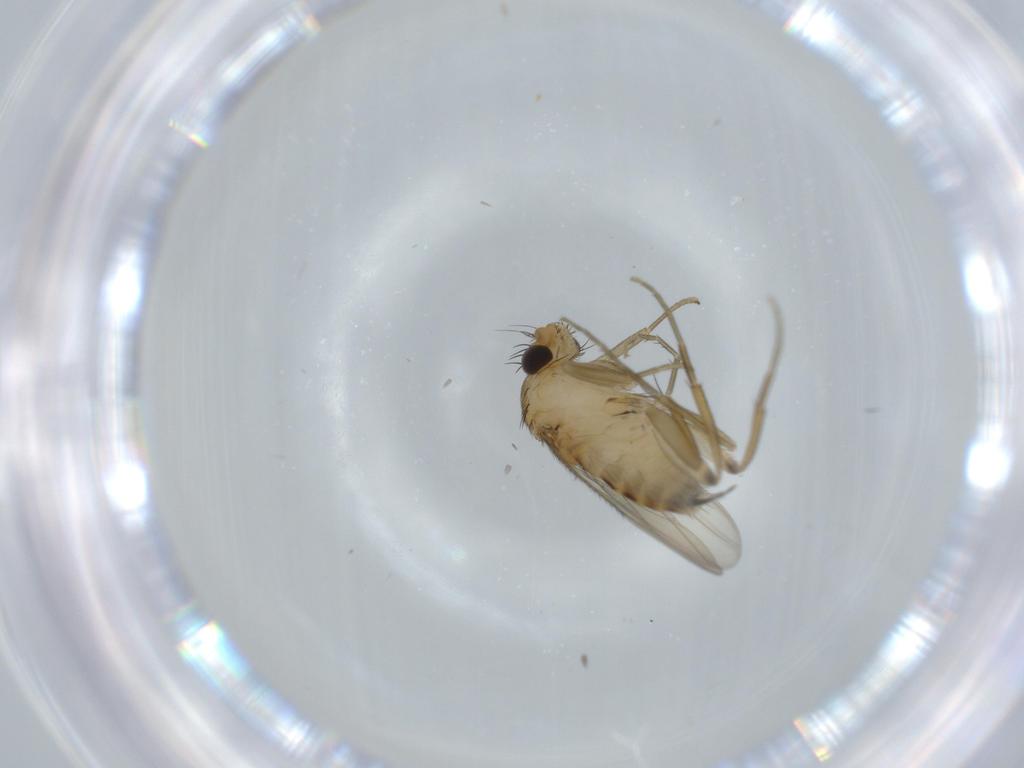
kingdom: Animalia
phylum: Arthropoda
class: Insecta
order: Diptera
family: Phoridae
